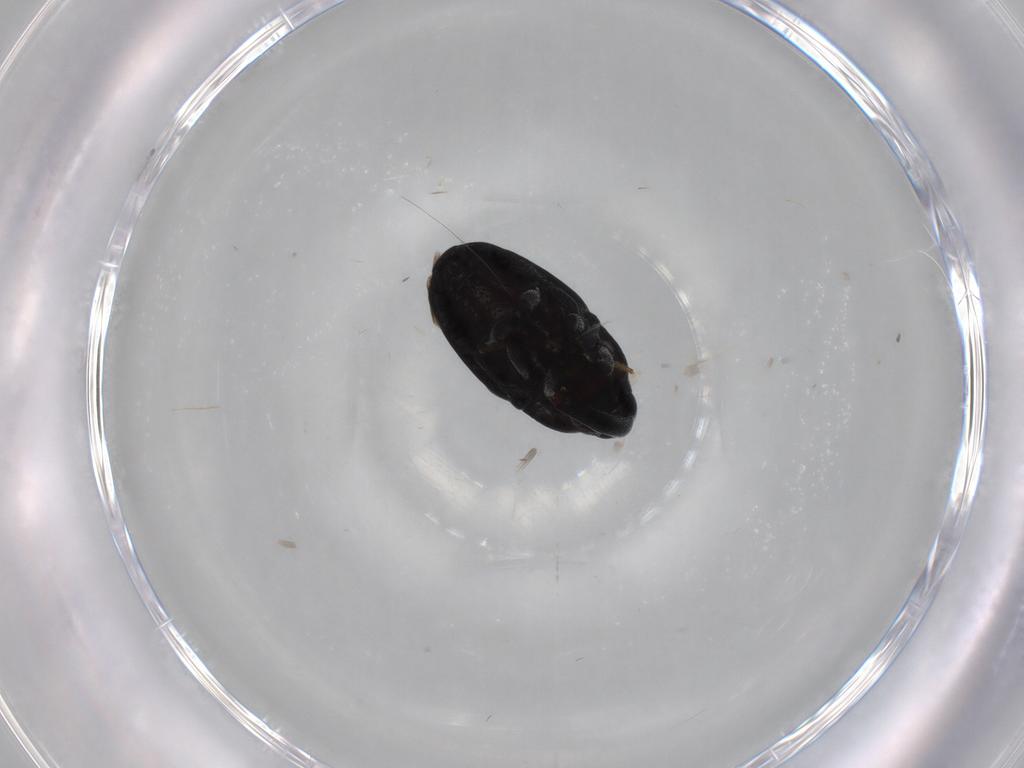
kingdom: Animalia
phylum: Arthropoda
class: Insecta
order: Coleoptera
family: Curculionidae
